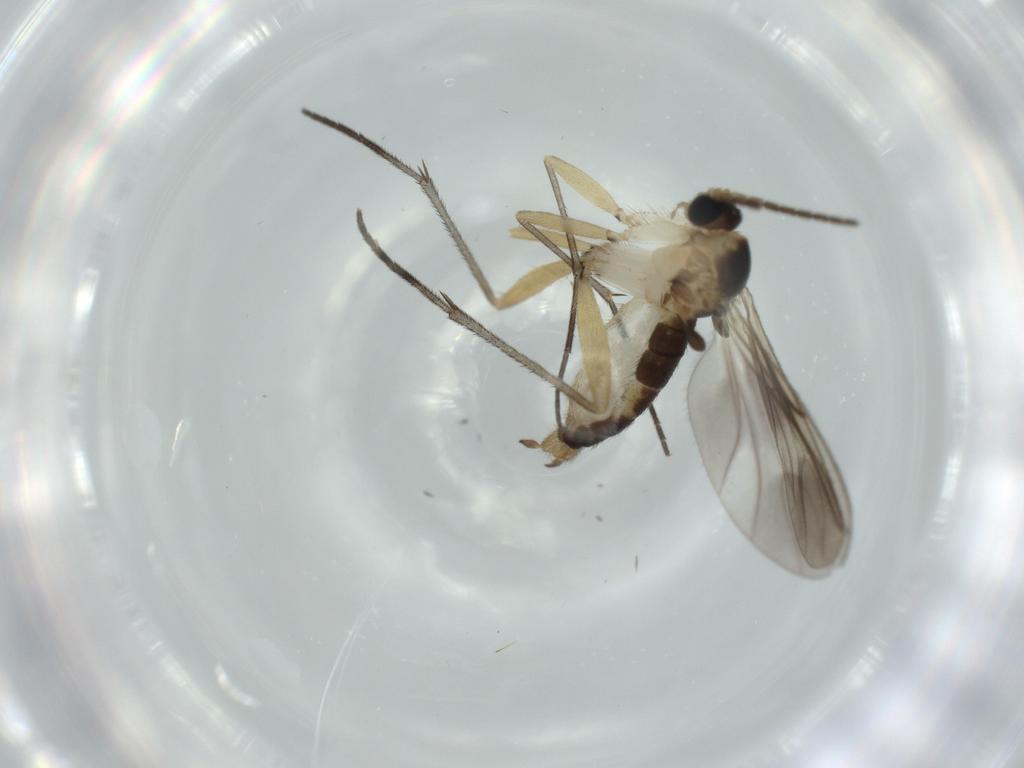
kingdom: Animalia
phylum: Arthropoda
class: Insecta
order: Diptera
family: Sciaridae
